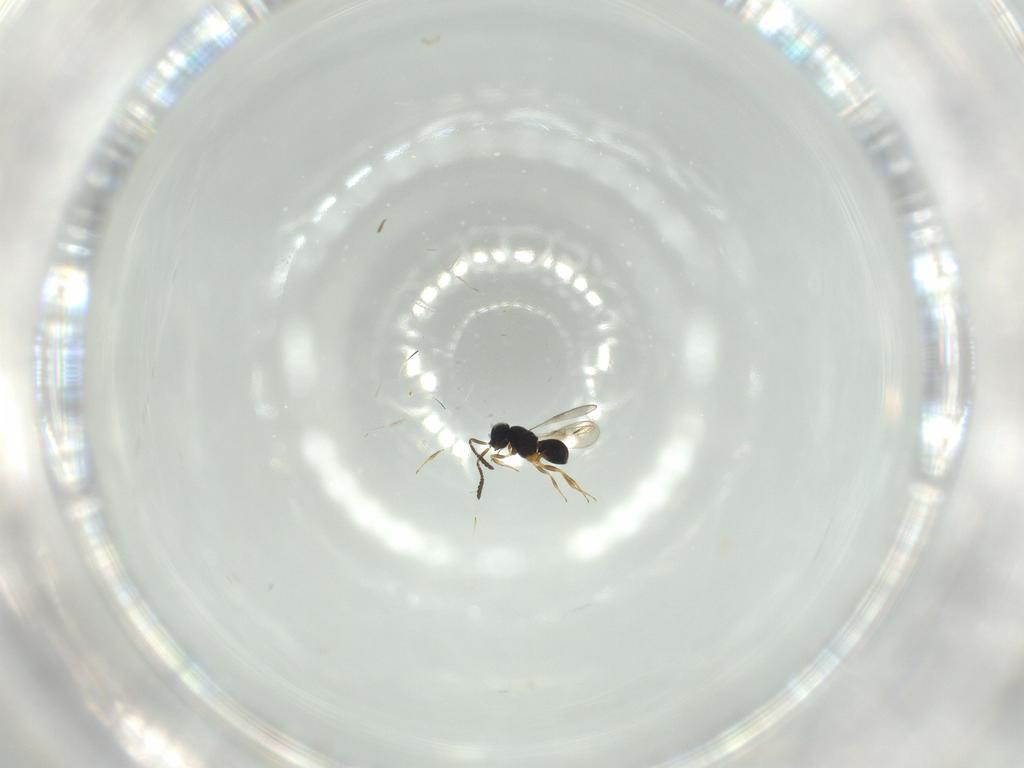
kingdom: Animalia
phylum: Arthropoda
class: Insecta
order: Hymenoptera
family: Scelionidae
